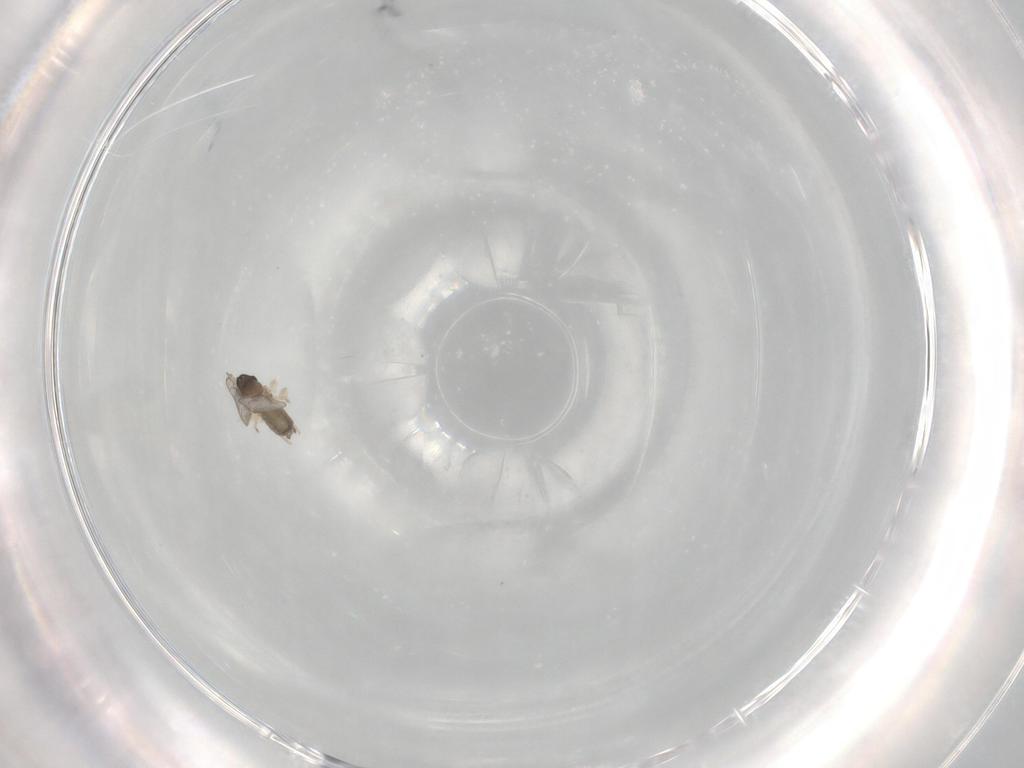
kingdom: Animalia
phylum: Arthropoda
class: Insecta
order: Diptera
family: Cecidomyiidae
